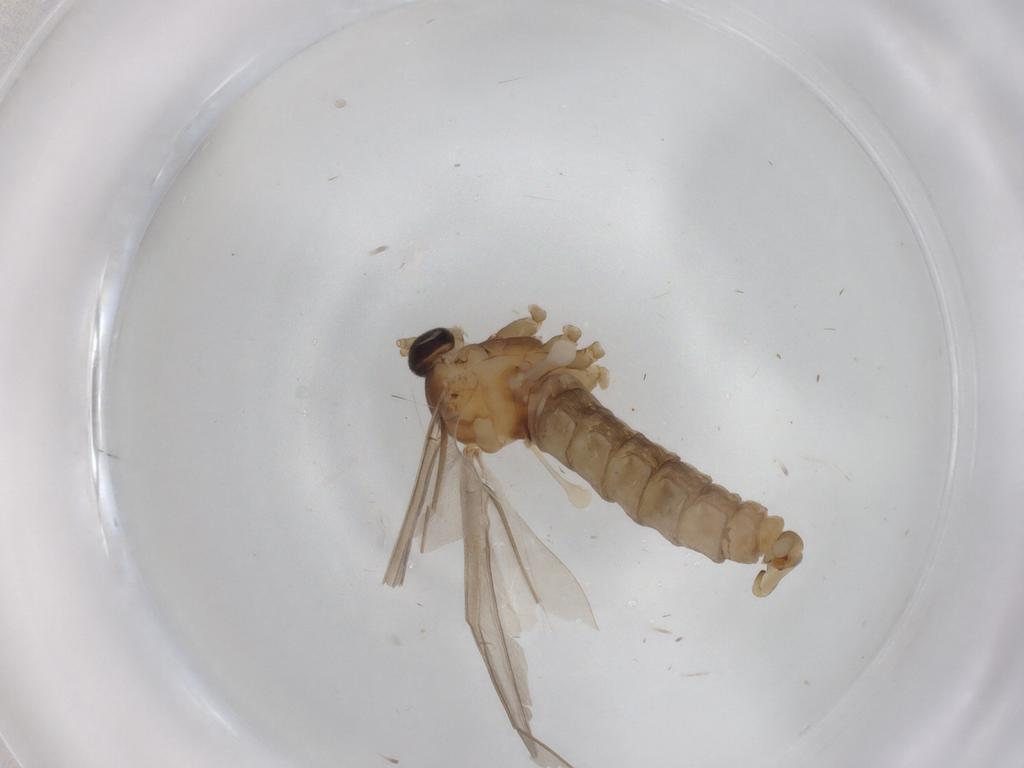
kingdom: Animalia
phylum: Arthropoda
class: Insecta
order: Diptera
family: Cecidomyiidae
